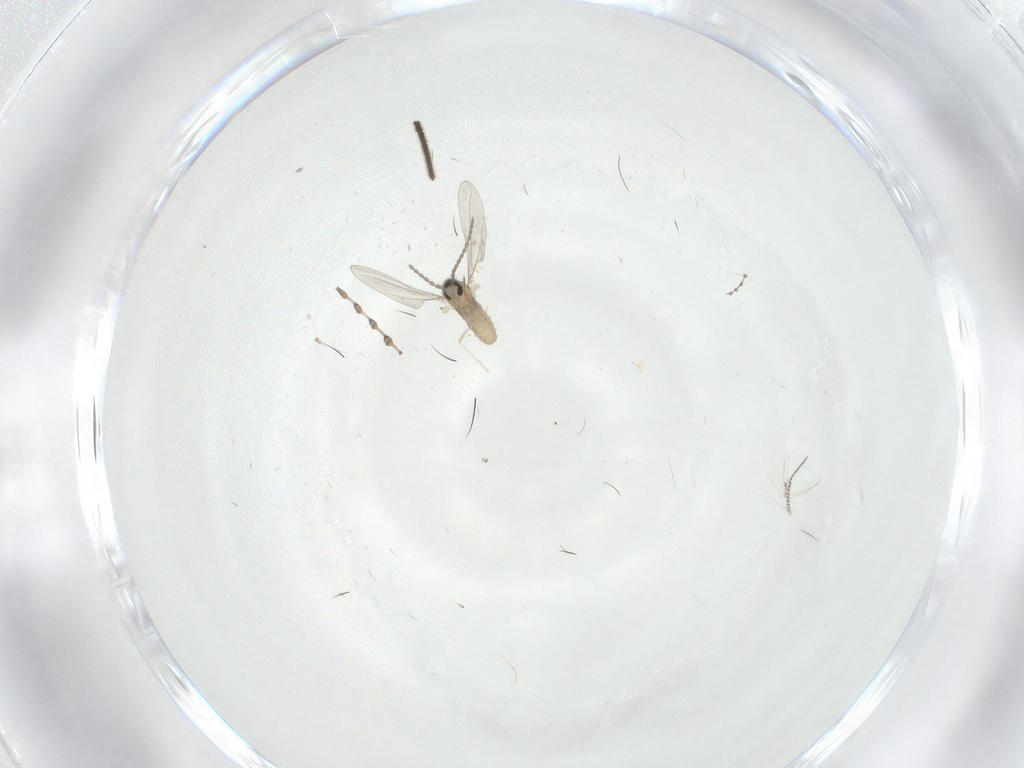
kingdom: Animalia
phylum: Arthropoda
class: Insecta
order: Diptera
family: Sciaridae
